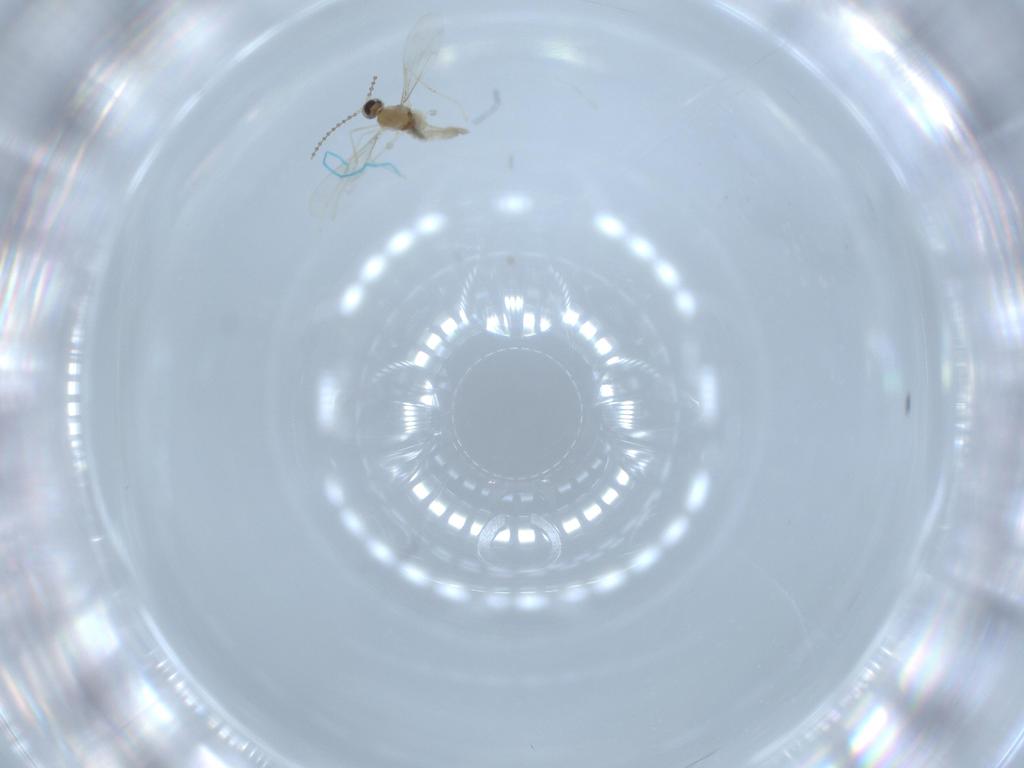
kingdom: Animalia
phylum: Arthropoda
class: Insecta
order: Diptera
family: Cecidomyiidae
